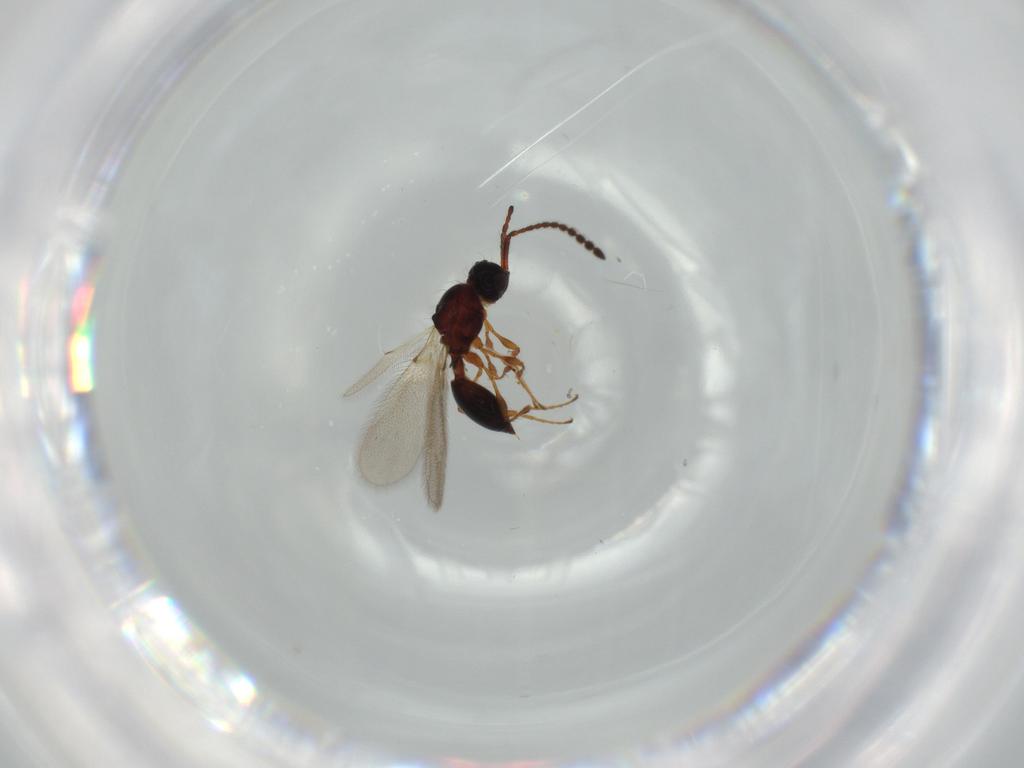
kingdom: Animalia
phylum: Arthropoda
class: Insecta
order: Hymenoptera
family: Diapriidae
